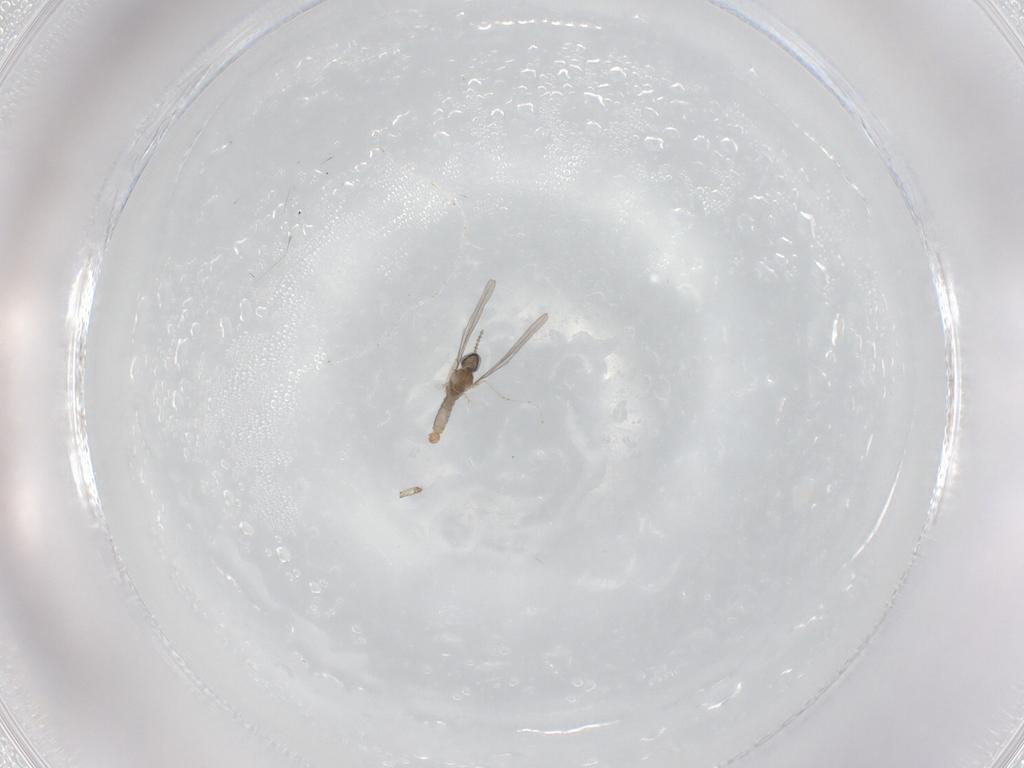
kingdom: Animalia
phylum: Arthropoda
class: Insecta
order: Diptera
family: Cecidomyiidae
